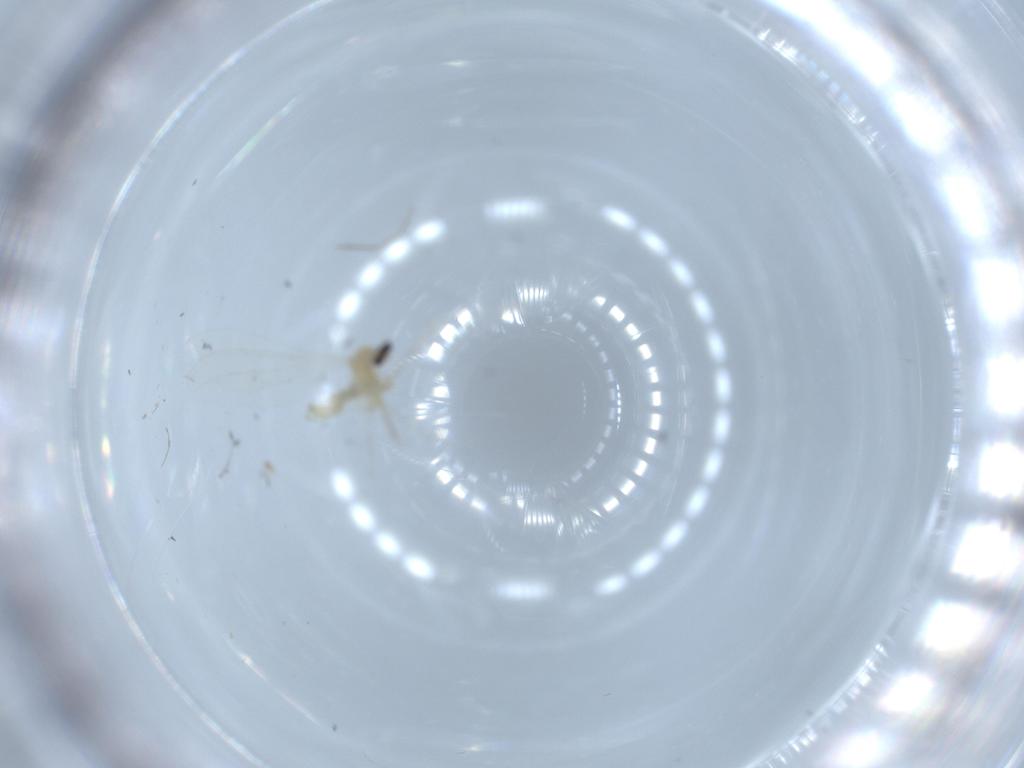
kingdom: Animalia
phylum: Arthropoda
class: Insecta
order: Diptera
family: Cecidomyiidae
